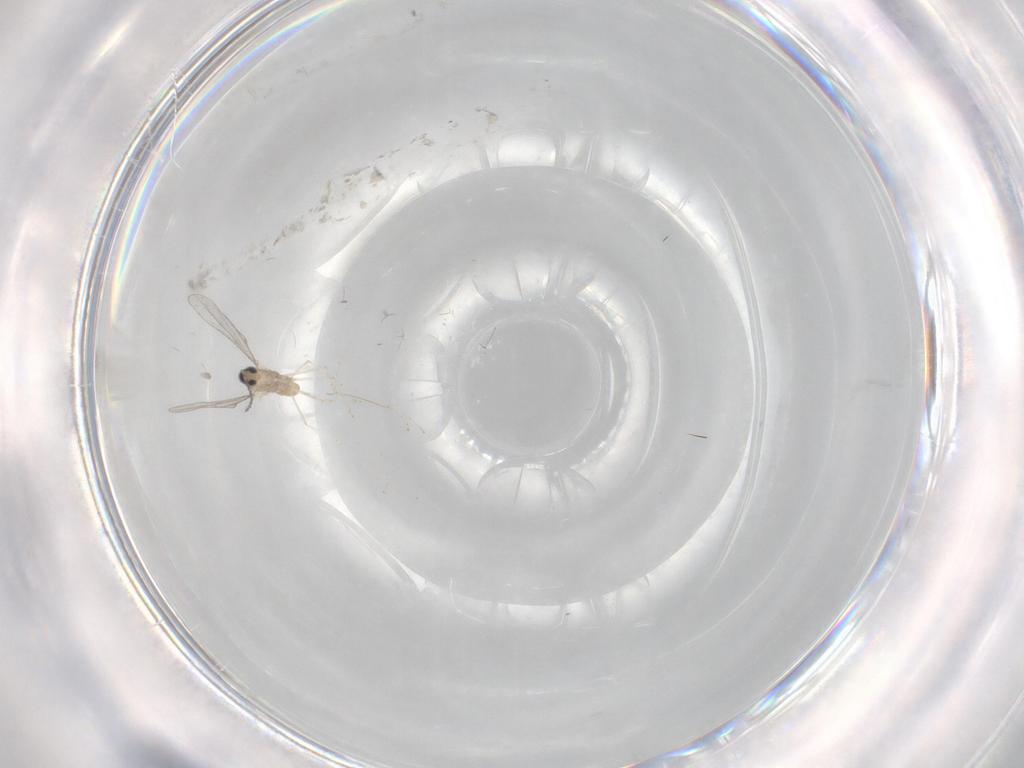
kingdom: Animalia
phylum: Arthropoda
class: Insecta
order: Diptera
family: Cecidomyiidae
